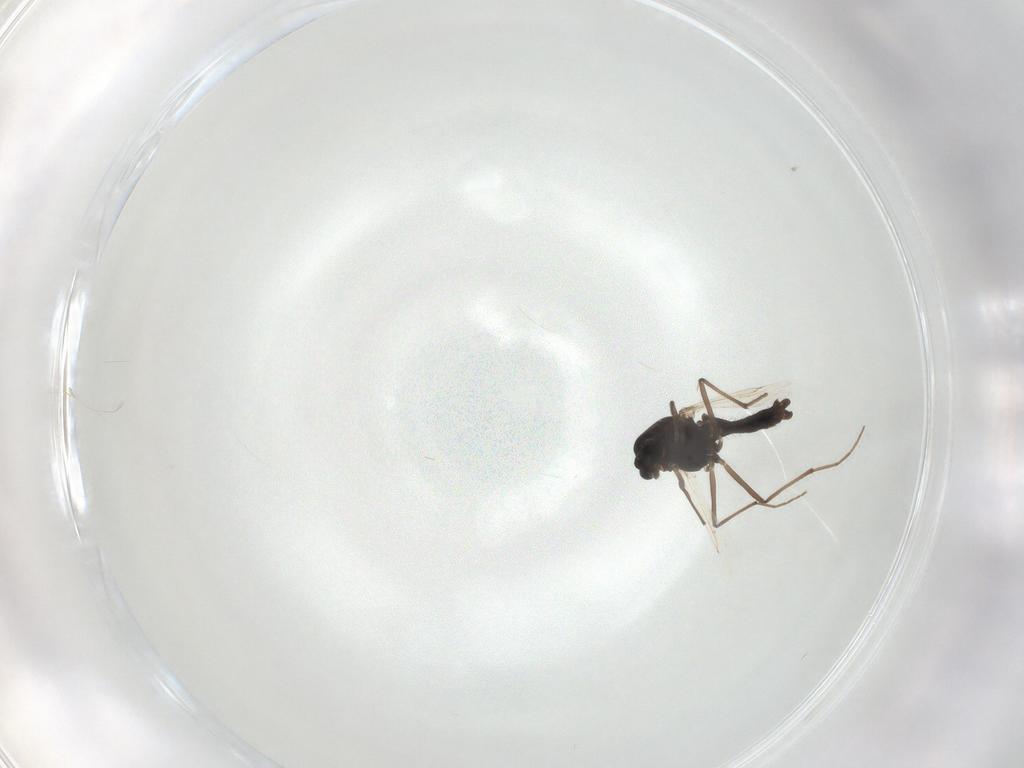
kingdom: Animalia
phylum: Arthropoda
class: Insecta
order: Diptera
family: Chironomidae
